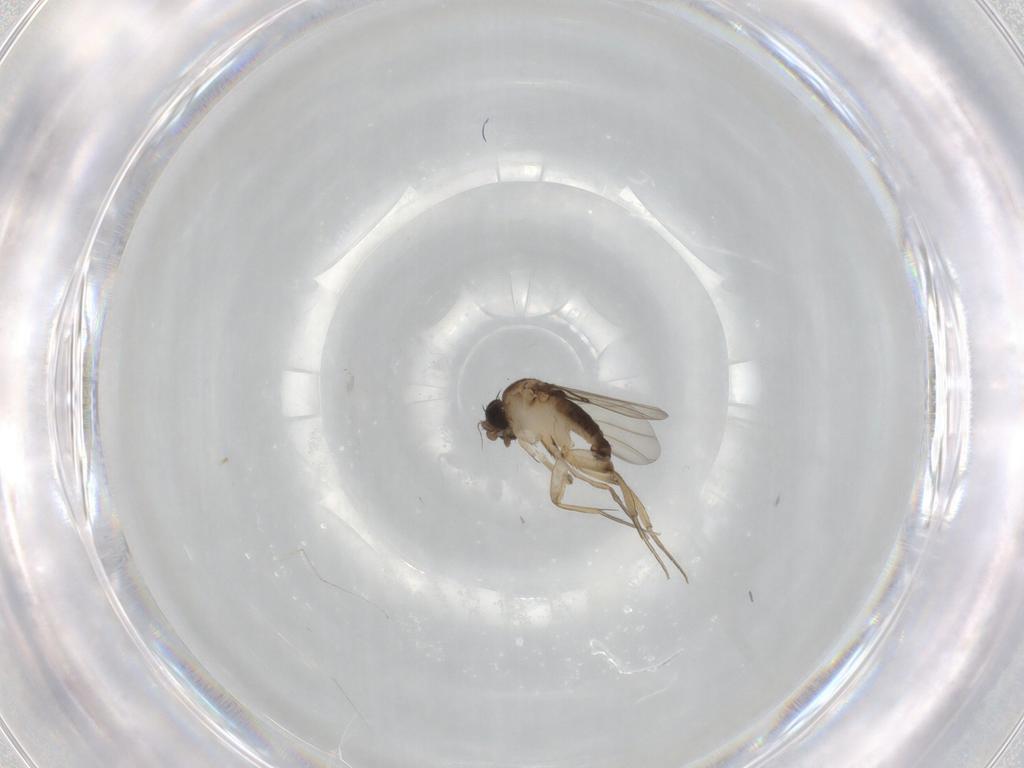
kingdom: Animalia
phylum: Arthropoda
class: Insecta
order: Diptera
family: Phoridae
